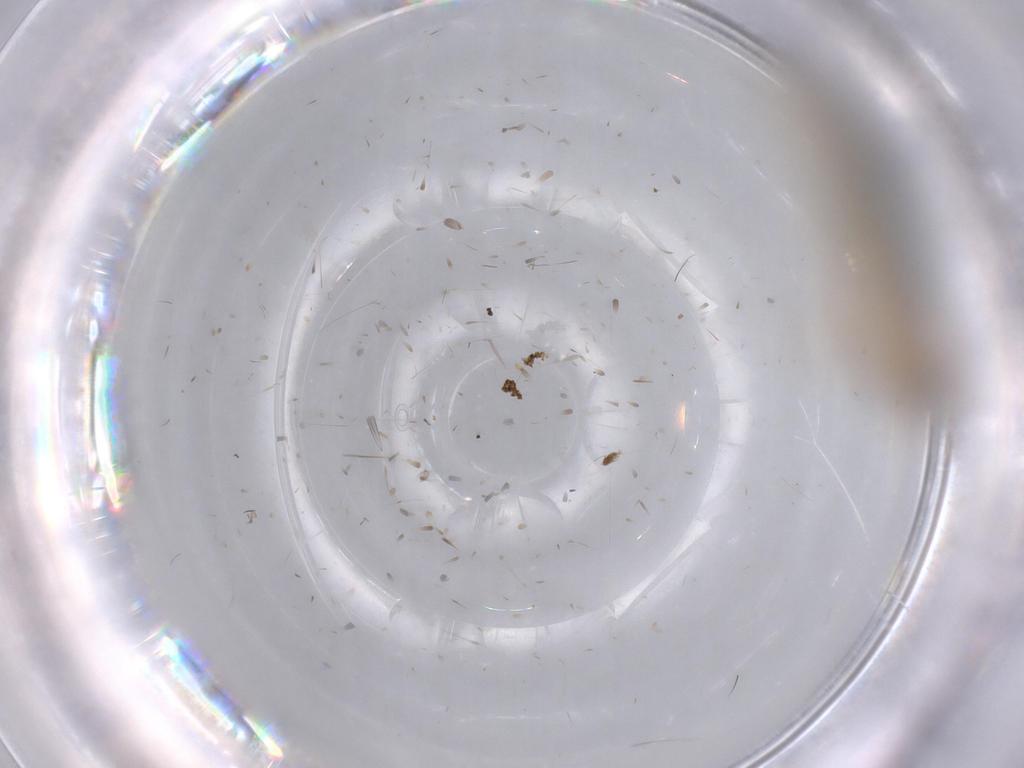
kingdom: Animalia
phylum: Arthropoda
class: Insecta
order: Diptera
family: Dolichopodidae
